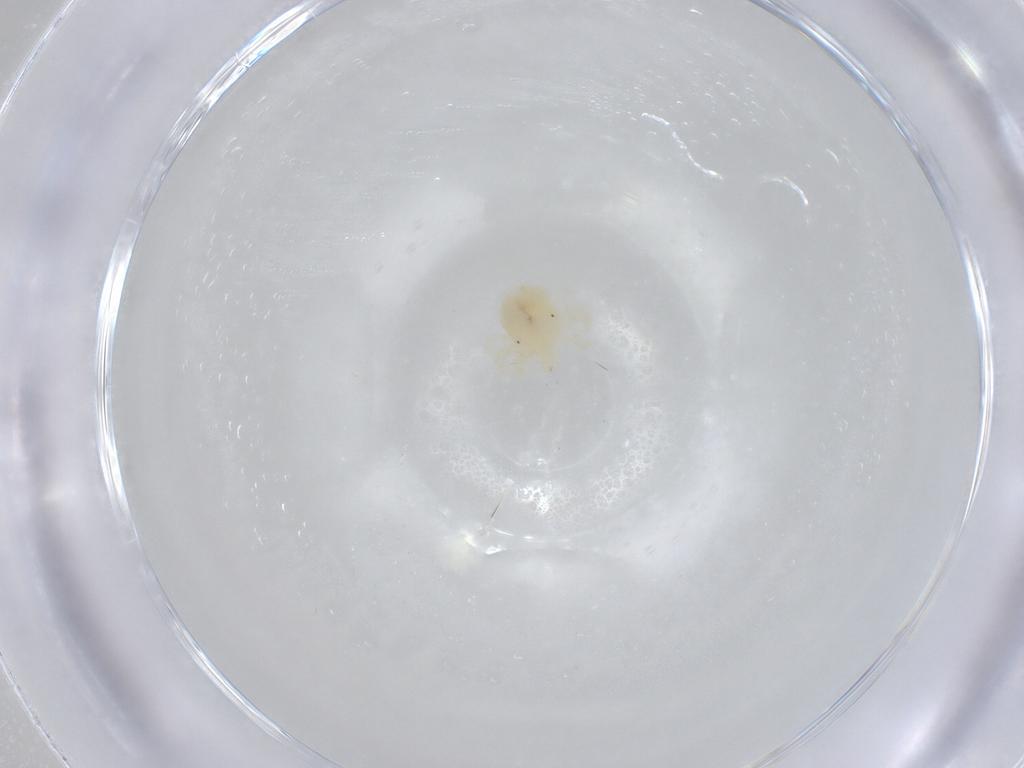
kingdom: Animalia
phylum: Arthropoda
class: Arachnida
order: Trombidiformes
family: Anystidae
